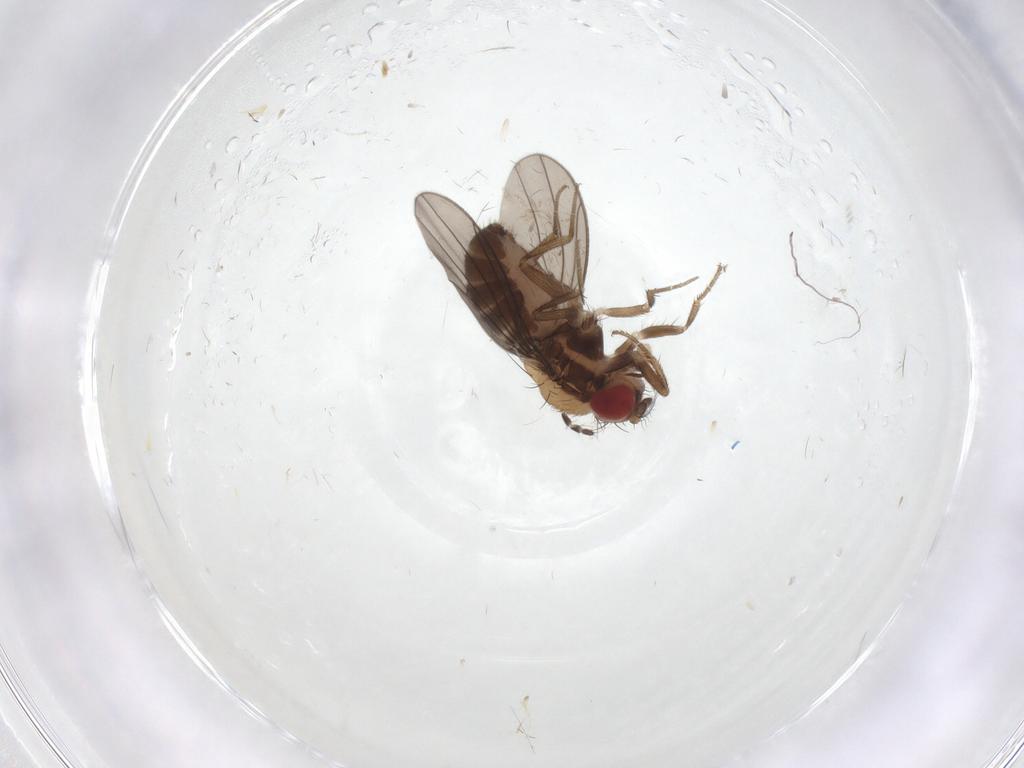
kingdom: Animalia
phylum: Arthropoda
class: Insecta
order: Diptera
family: Drosophilidae
